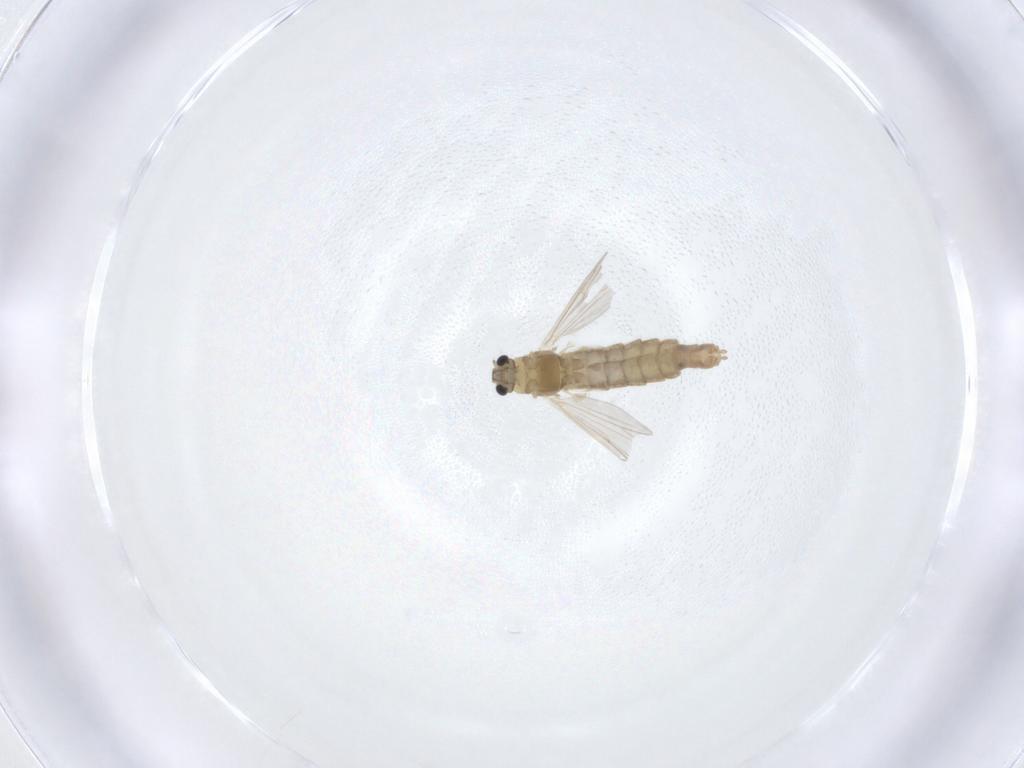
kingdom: Animalia
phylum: Arthropoda
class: Insecta
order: Diptera
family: Chironomidae
